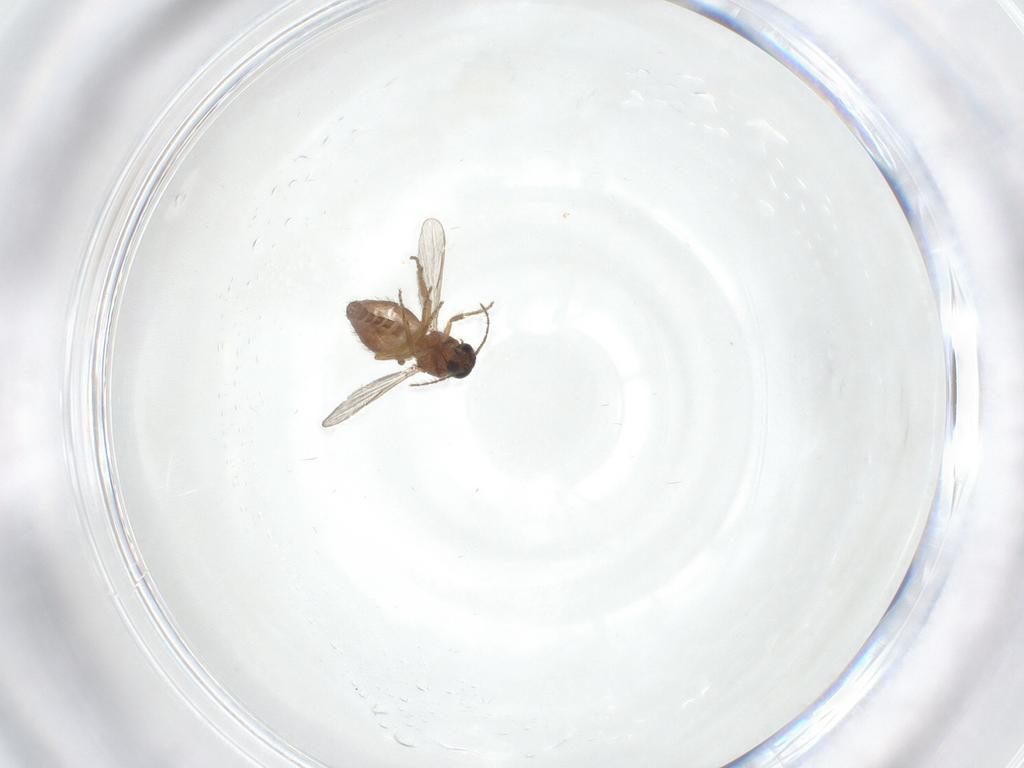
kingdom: Animalia
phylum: Arthropoda
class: Insecta
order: Diptera
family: Ceratopogonidae
